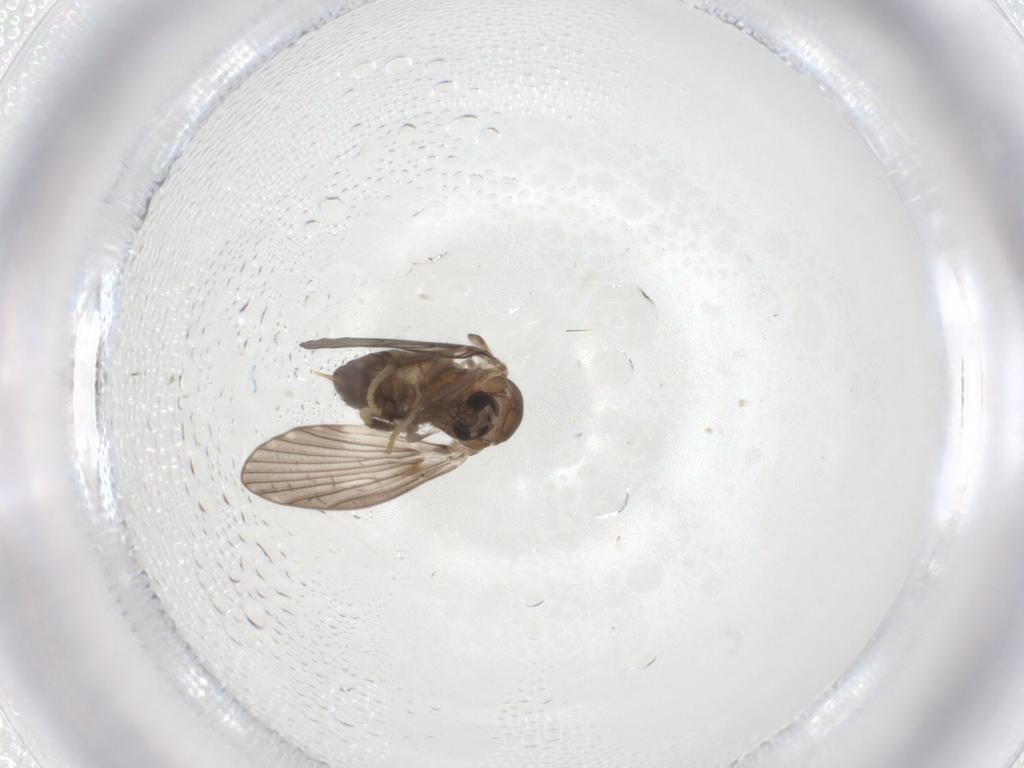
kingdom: Animalia
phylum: Arthropoda
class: Insecta
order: Diptera
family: Psychodidae
